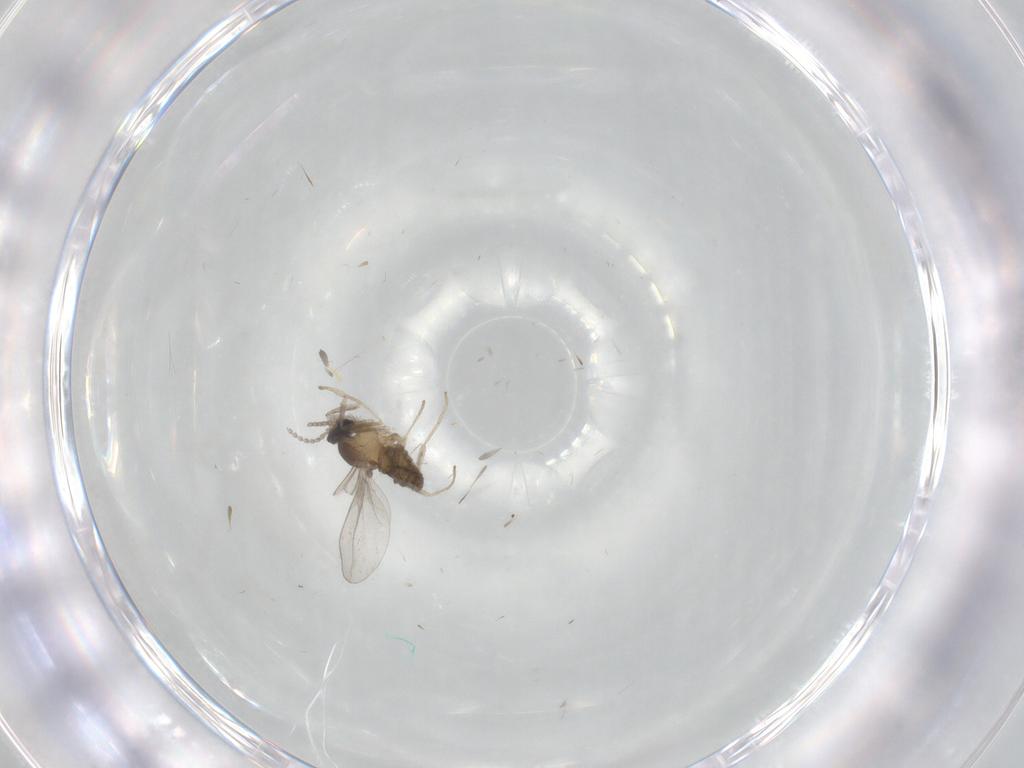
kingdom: Animalia
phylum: Arthropoda
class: Insecta
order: Diptera
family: Cecidomyiidae
